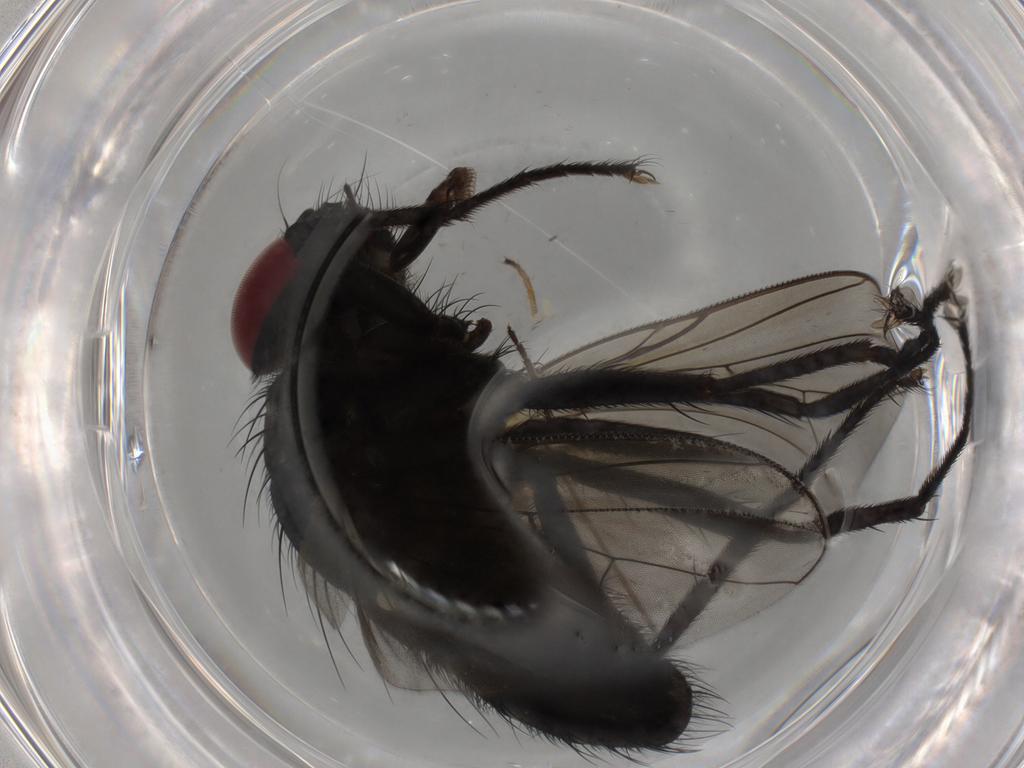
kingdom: Animalia
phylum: Arthropoda
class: Insecta
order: Diptera
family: Muscidae
